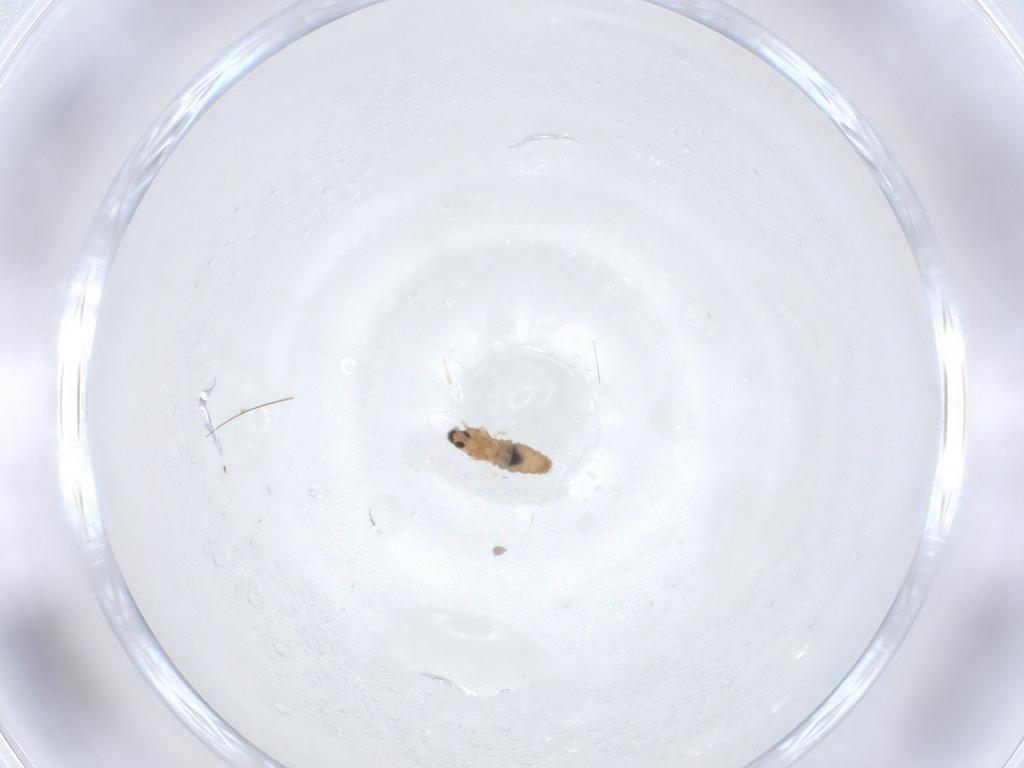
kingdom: Animalia
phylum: Arthropoda
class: Insecta
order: Diptera
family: Cecidomyiidae
